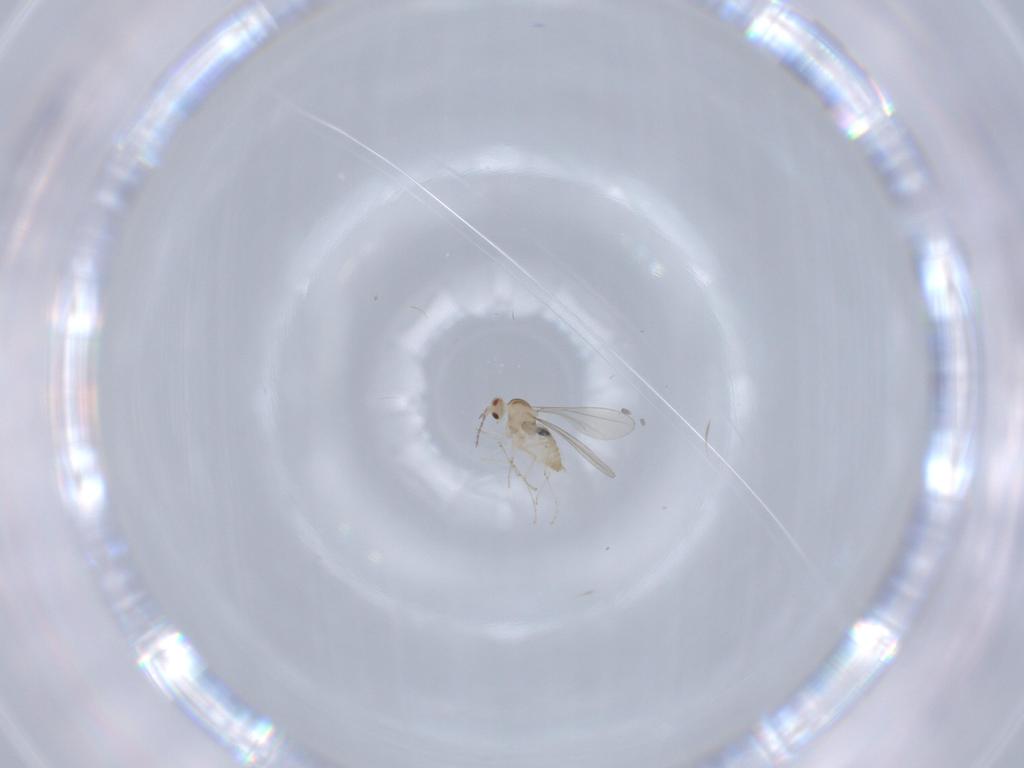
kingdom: Animalia
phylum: Arthropoda
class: Insecta
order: Diptera
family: Cecidomyiidae
